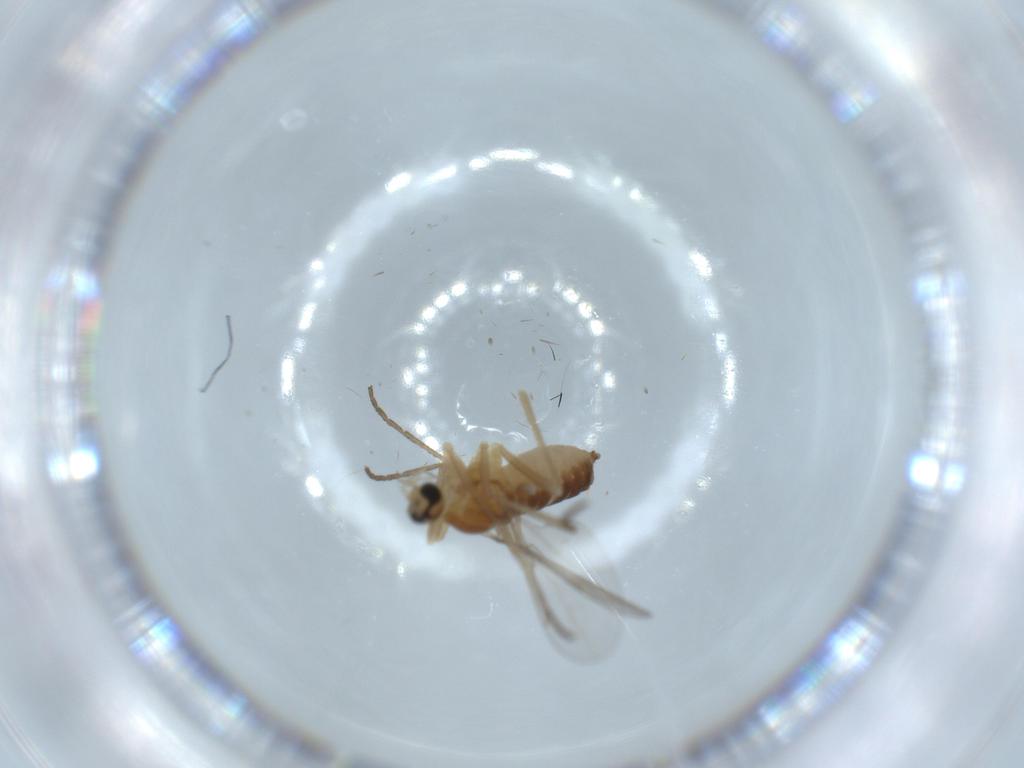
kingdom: Animalia
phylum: Arthropoda
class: Insecta
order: Diptera
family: Cecidomyiidae
